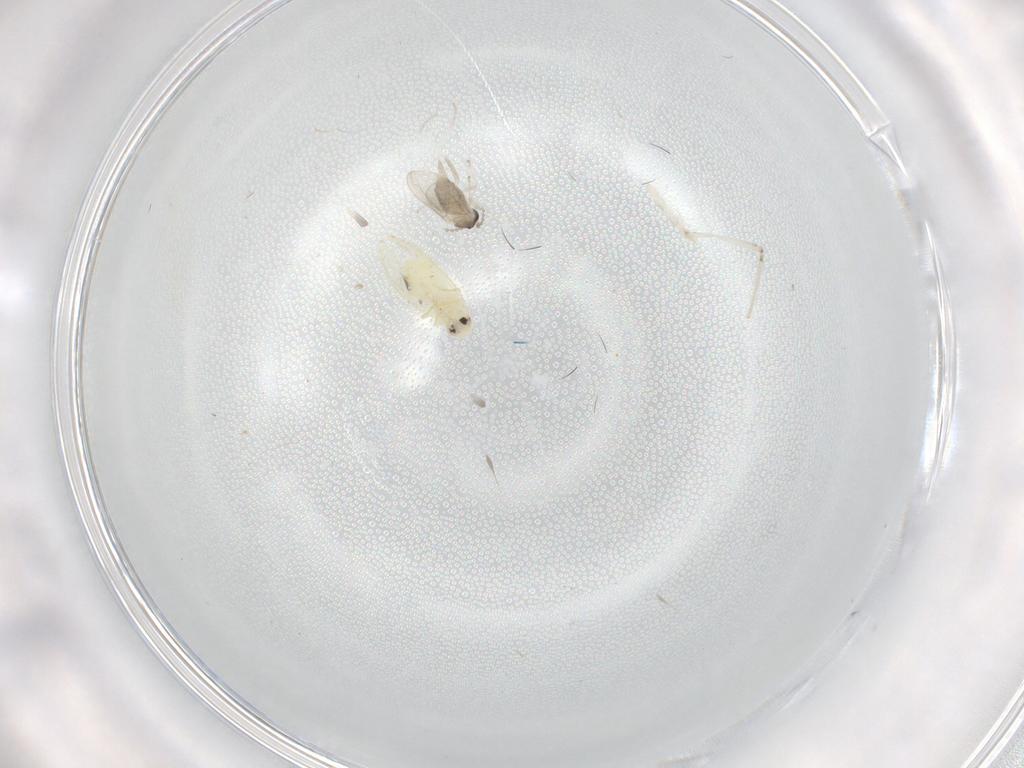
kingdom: Animalia
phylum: Arthropoda
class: Insecta
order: Diptera
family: Cecidomyiidae
